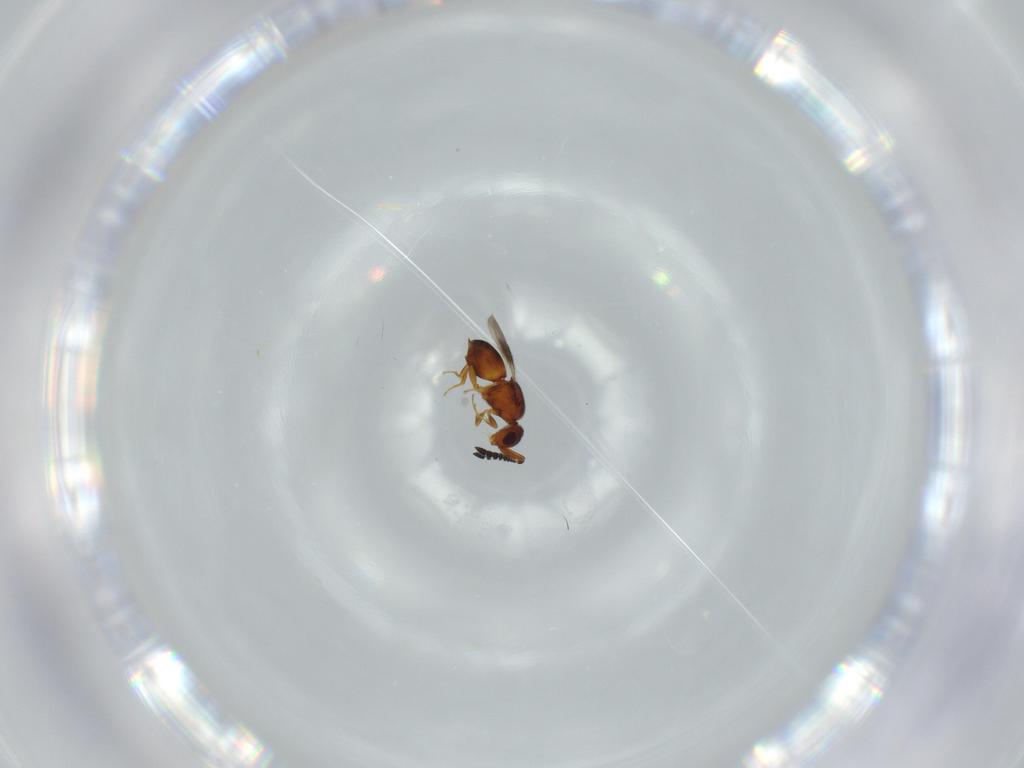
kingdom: Animalia
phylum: Arthropoda
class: Insecta
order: Hymenoptera
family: Ceraphronidae
